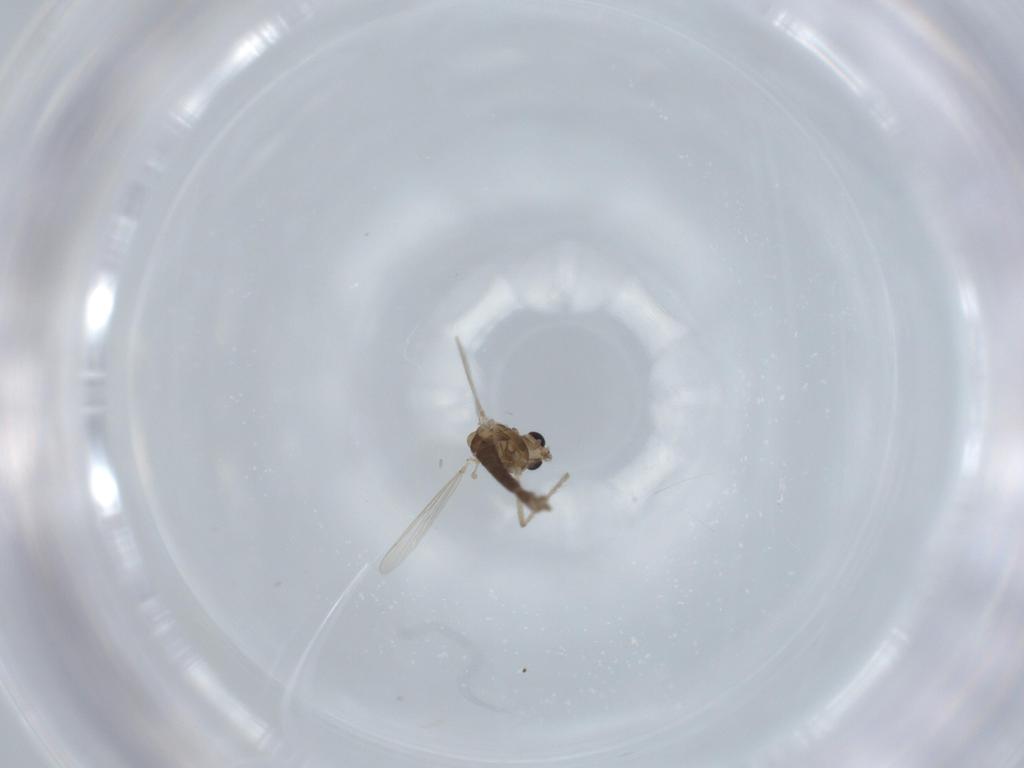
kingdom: Animalia
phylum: Arthropoda
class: Insecta
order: Diptera
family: Chironomidae
